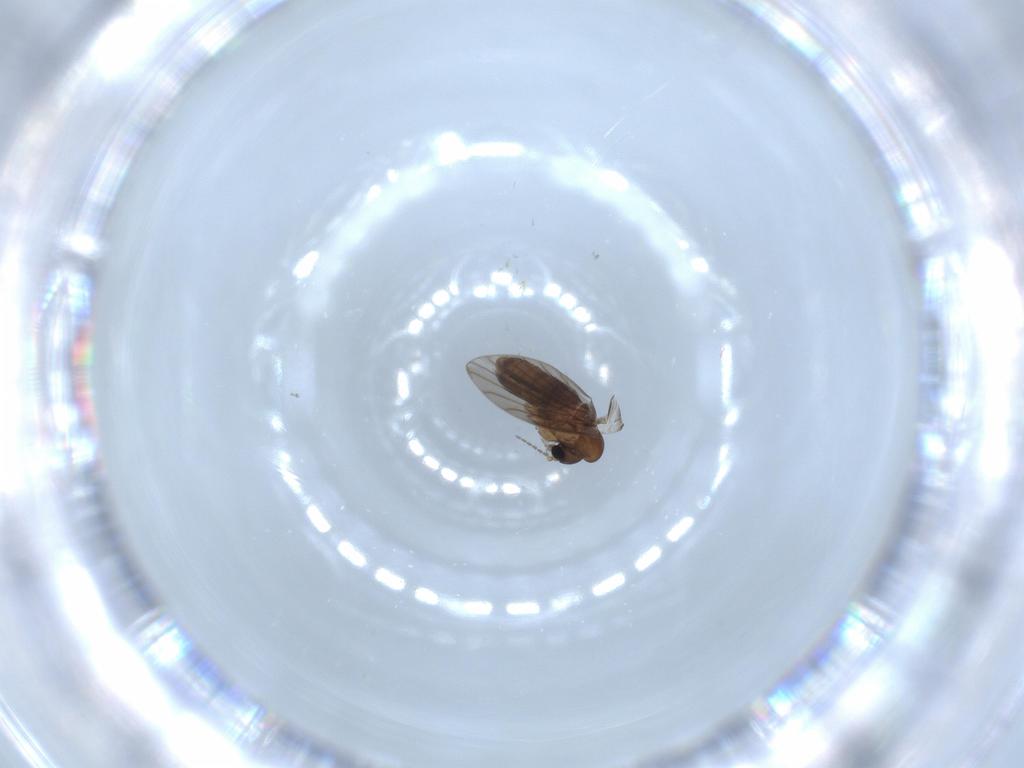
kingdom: Animalia
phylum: Arthropoda
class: Insecta
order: Diptera
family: Psychodidae
